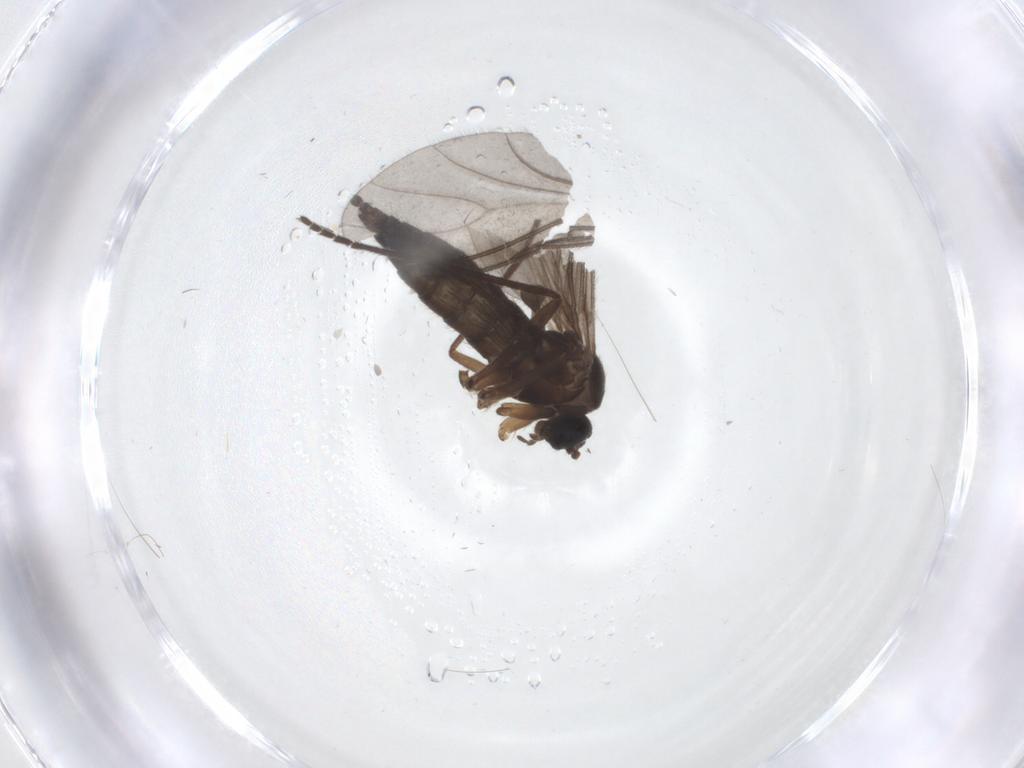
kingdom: Animalia
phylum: Arthropoda
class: Insecta
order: Diptera
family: Sciaridae
